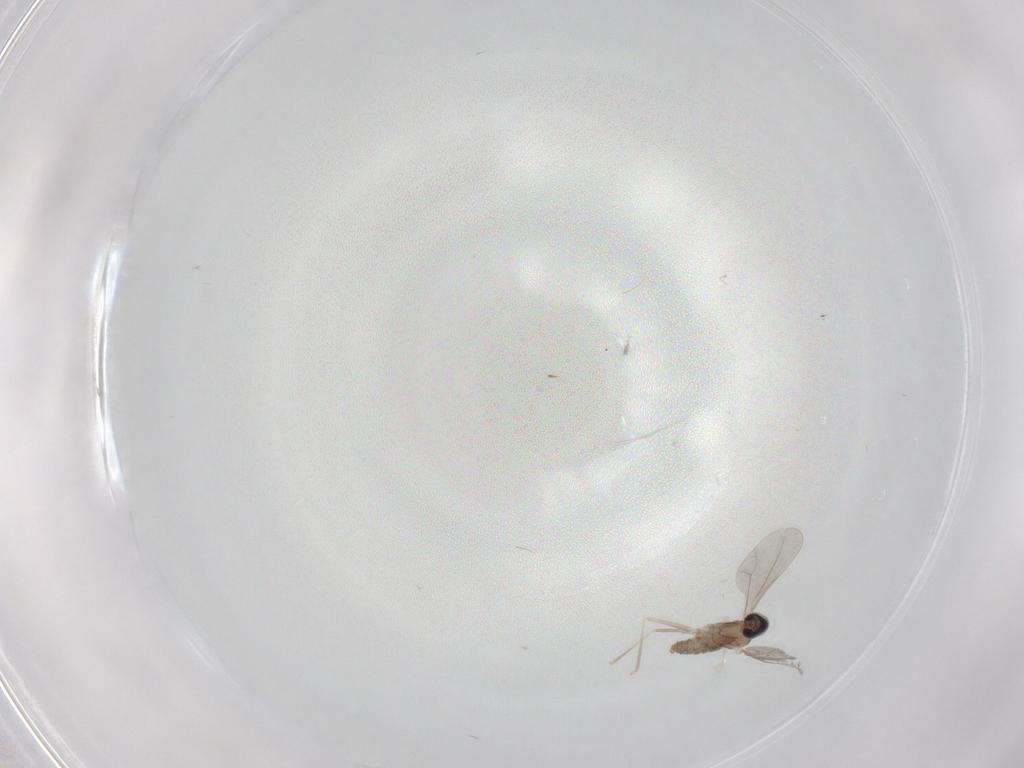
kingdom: Animalia
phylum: Arthropoda
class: Insecta
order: Diptera
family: Cecidomyiidae
